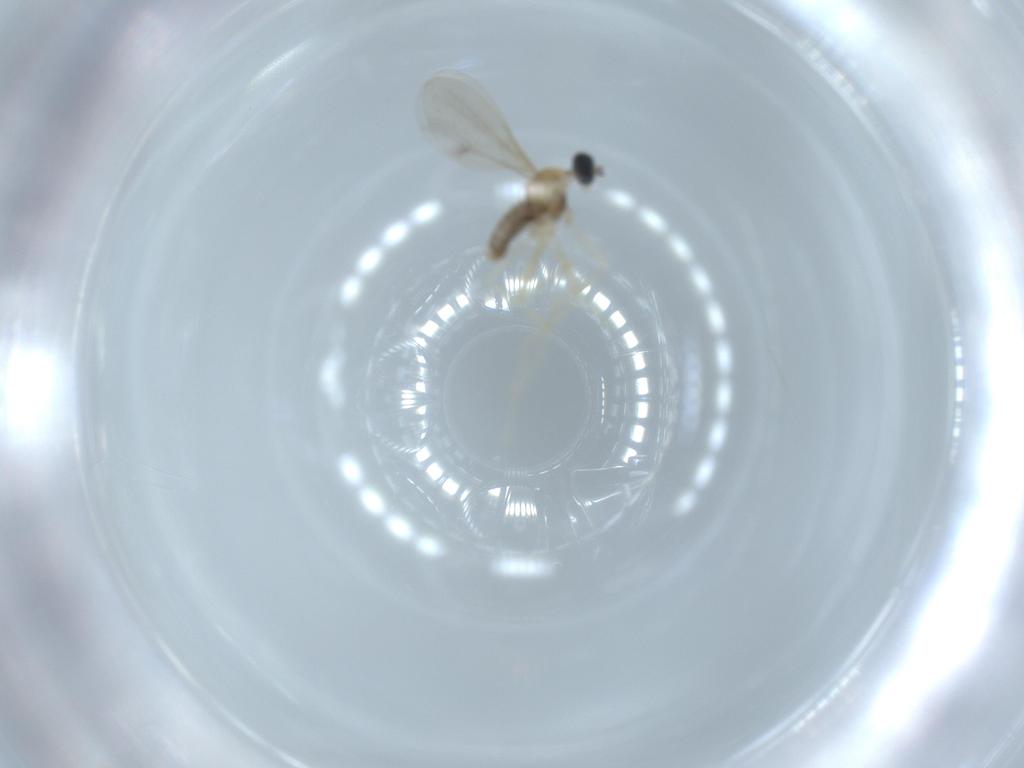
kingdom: Animalia
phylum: Arthropoda
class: Insecta
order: Diptera
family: Cecidomyiidae
